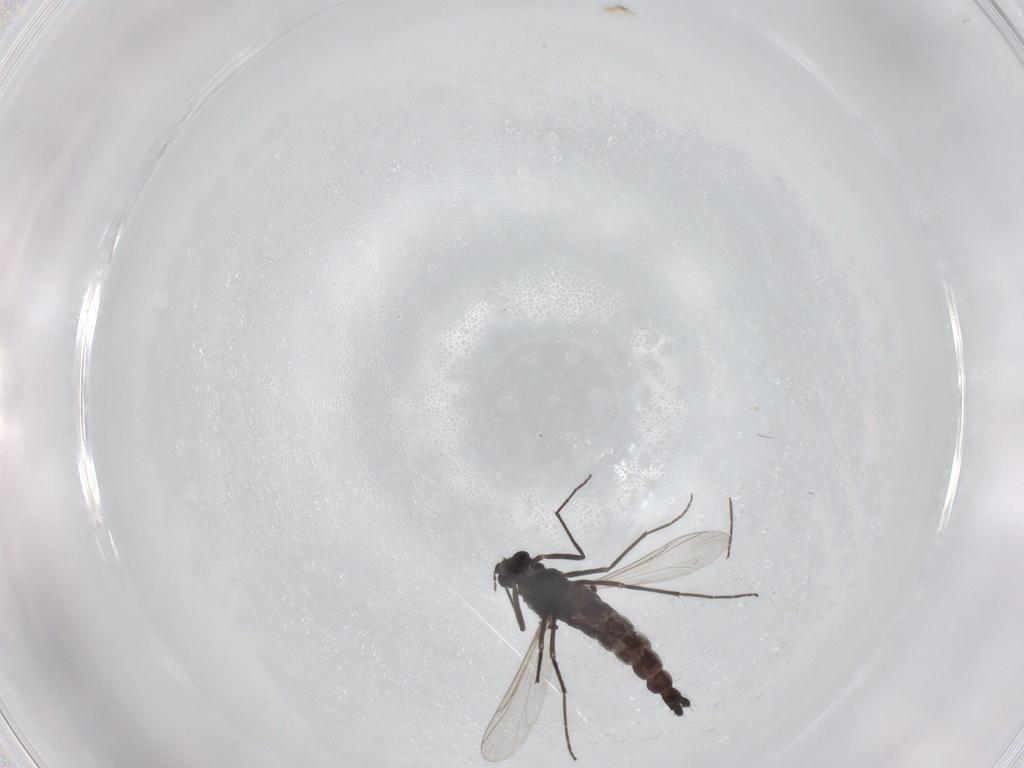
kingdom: Animalia
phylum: Arthropoda
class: Insecta
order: Diptera
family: Chironomidae
